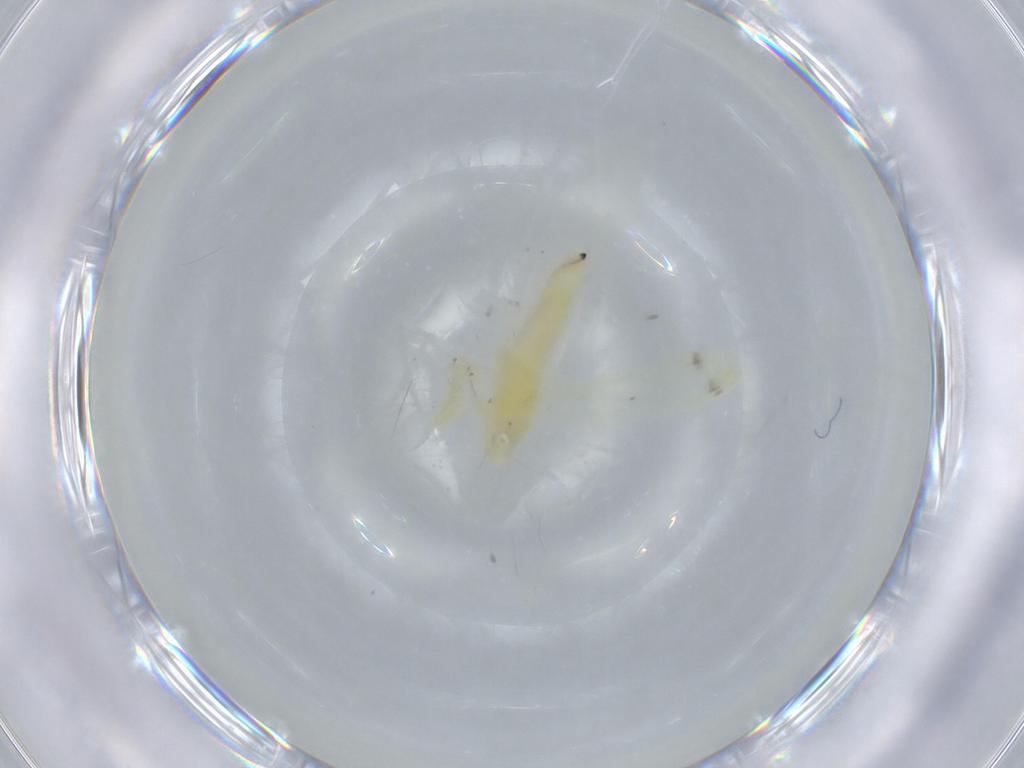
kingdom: Animalia
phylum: Arthropoda
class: Insecta
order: Hemiptera
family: Cicadellidae
